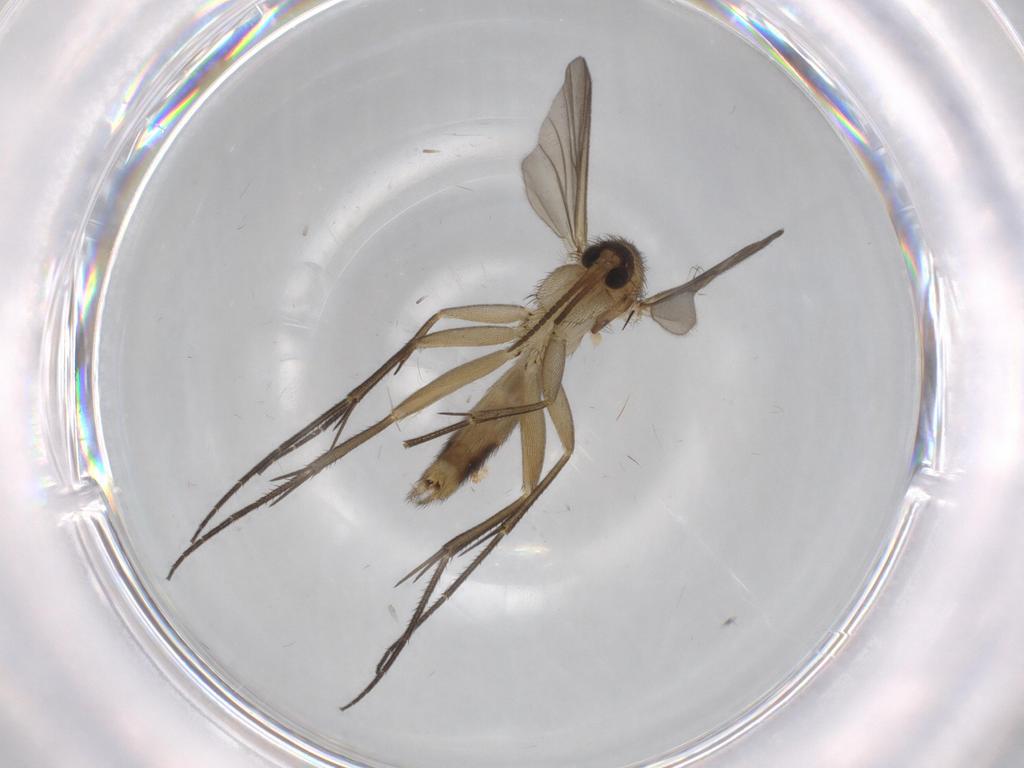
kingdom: Animalia
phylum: Arthropoda
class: Insecta
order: Diptera
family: Mycetophilidae
